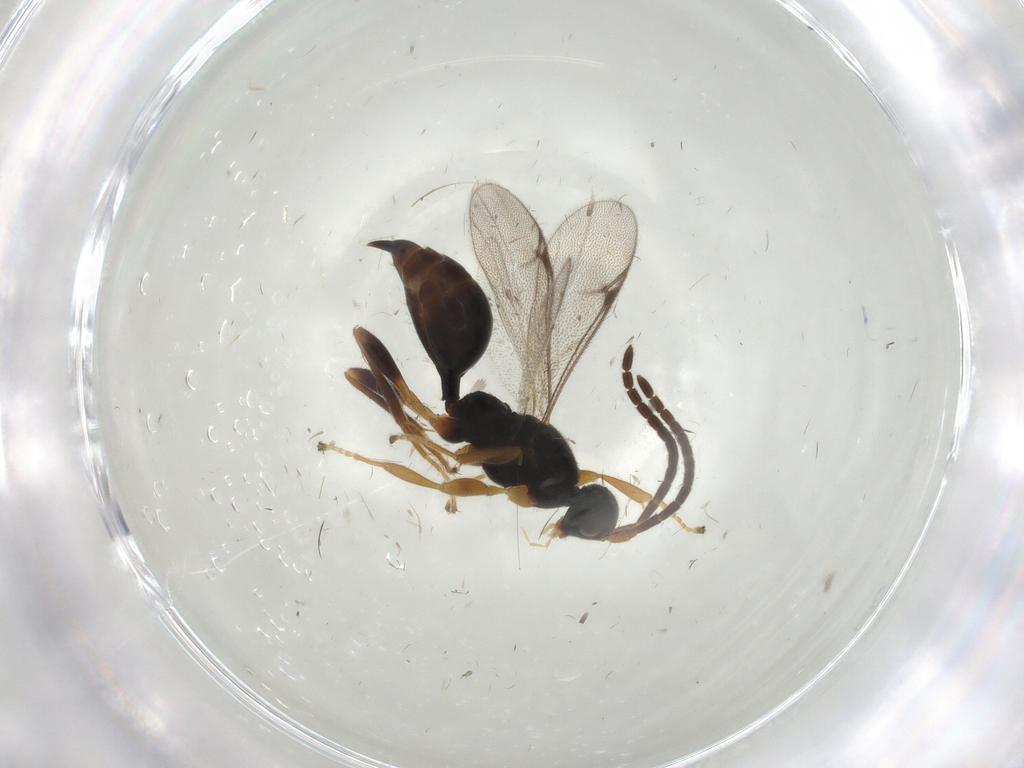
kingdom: Animalia
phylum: Arthropoda
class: Insecta
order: Hymenoptera
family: Proctotrupidae
